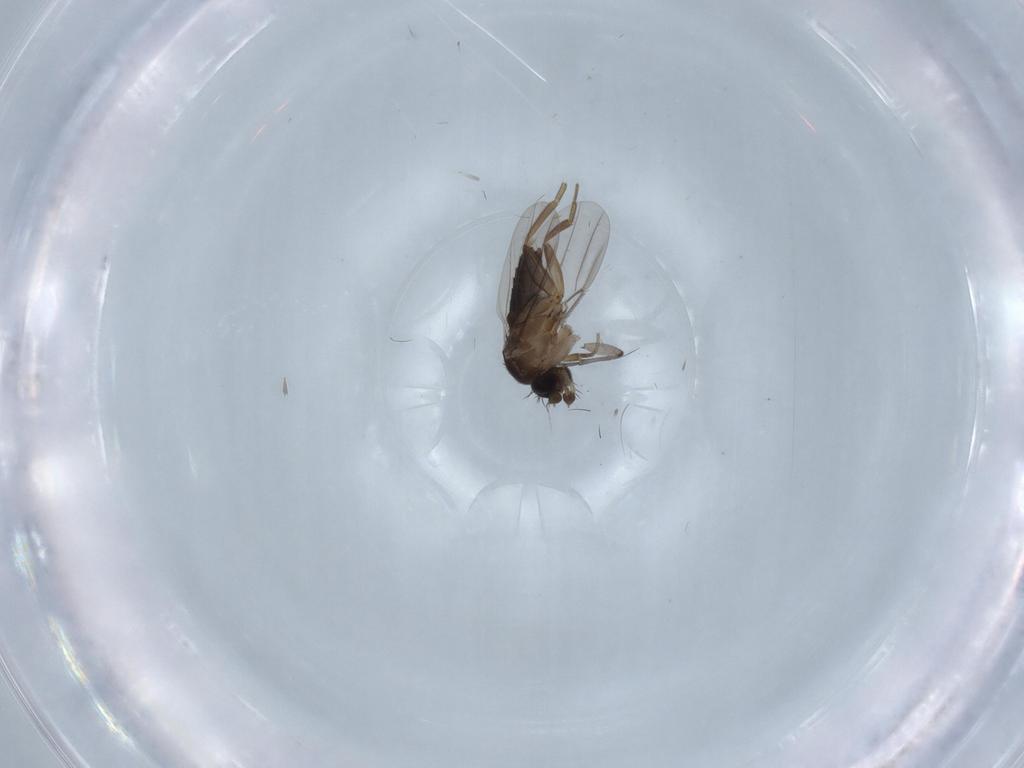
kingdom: Animalia
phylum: Arthropoda
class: Insecta
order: Diptera
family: Phoridae
